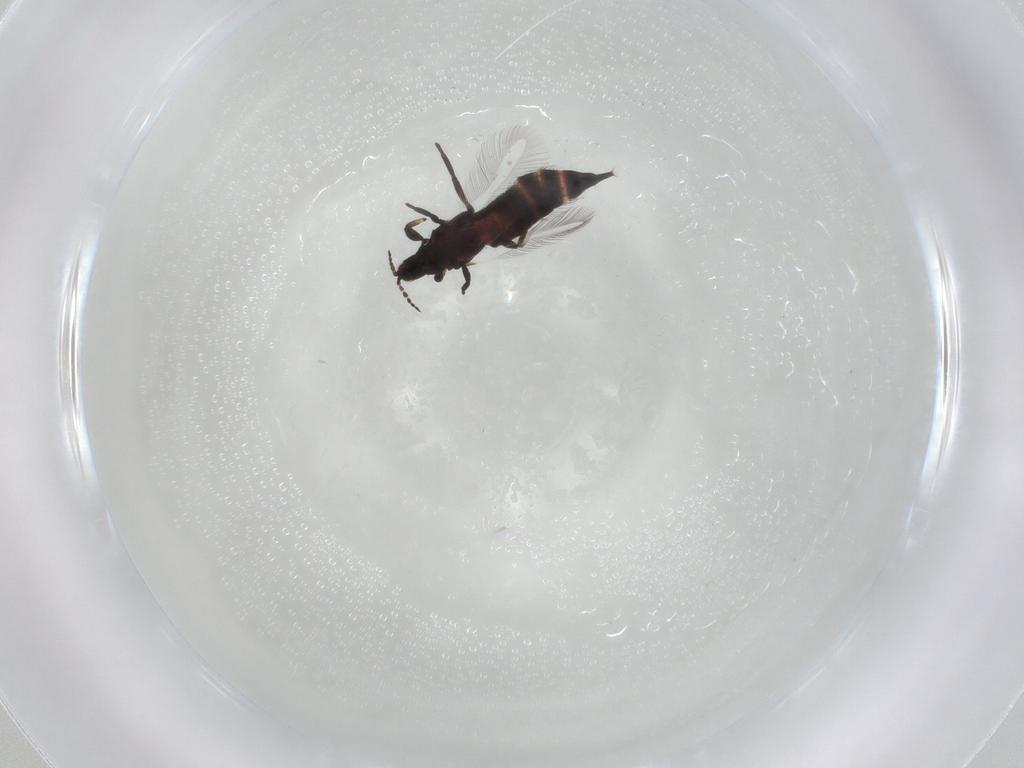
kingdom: Animalia
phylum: Arthropoda
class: Insecta
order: Thysanoptera
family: Phlaeothripidae
